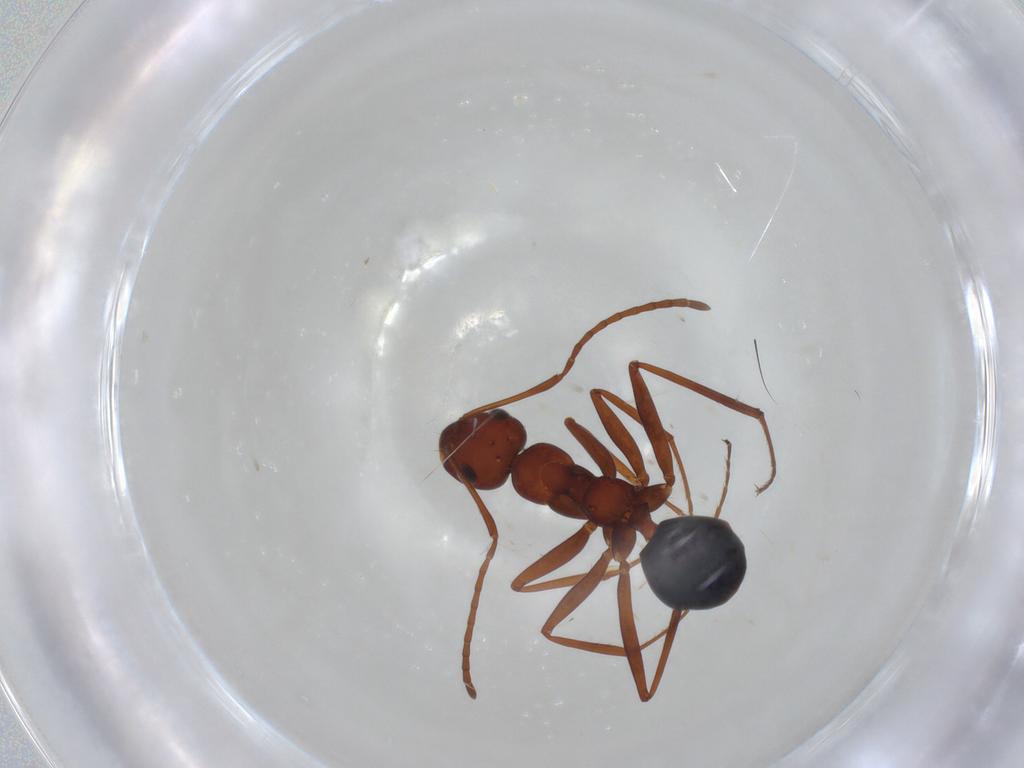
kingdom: Animalia
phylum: Arthropoda
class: Insecta
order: Hymenoptera
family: Formicidae
